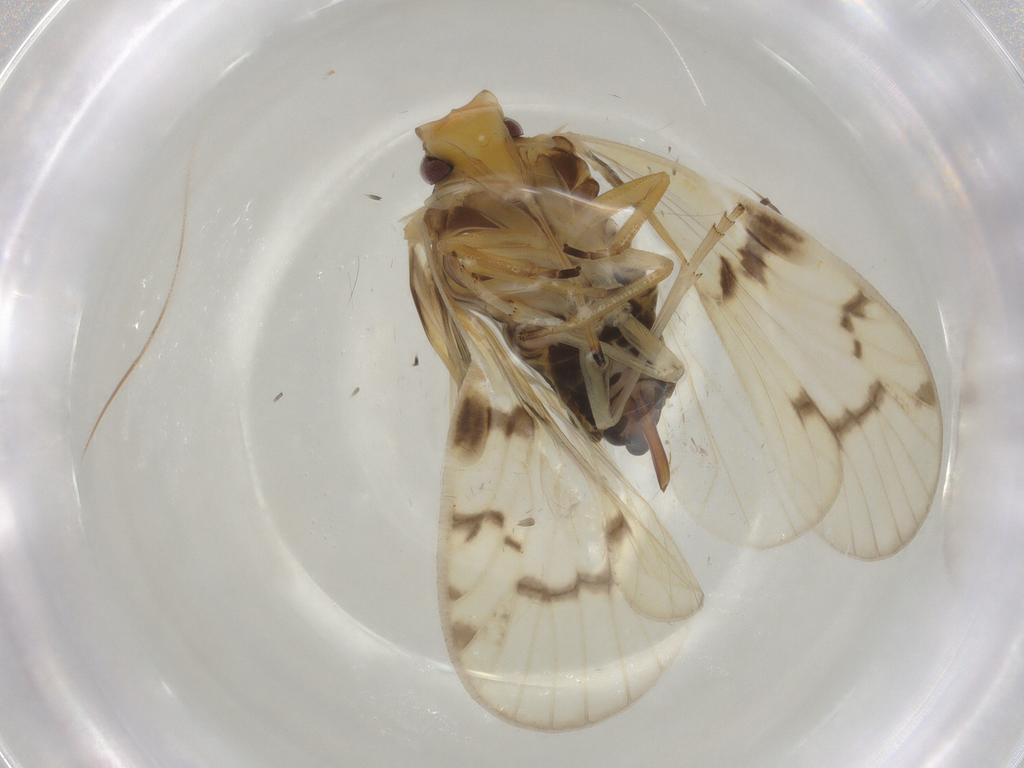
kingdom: Animalia
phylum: Arthropoda
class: Insecta
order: Hemiptera
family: Cixiidae
